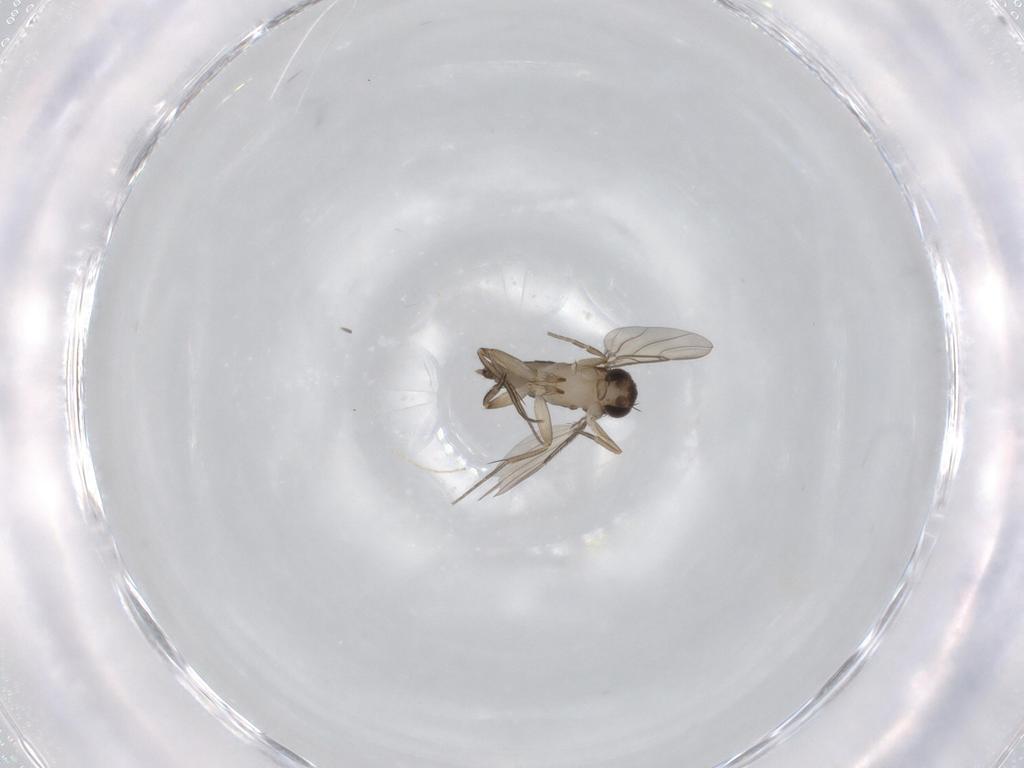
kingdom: Animalia
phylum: Arthropoda
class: Insecta
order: Diptera
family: Phoridae
